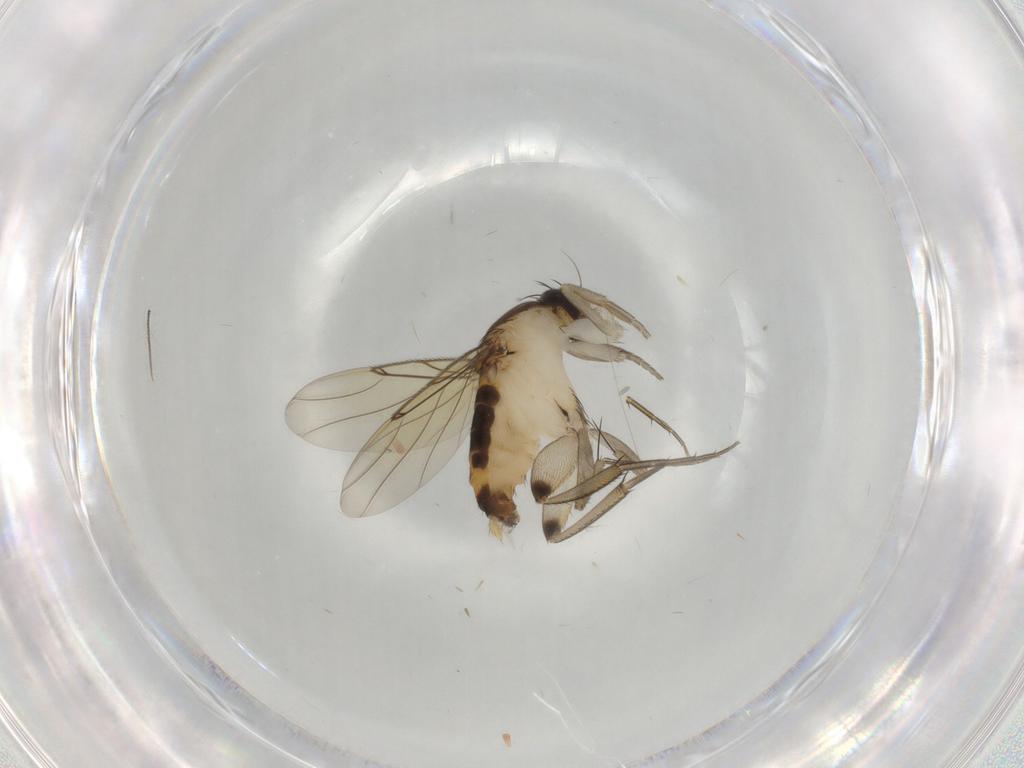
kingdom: Animalia
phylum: Arthropoda
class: Insecta
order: Diptera
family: Phoridae
